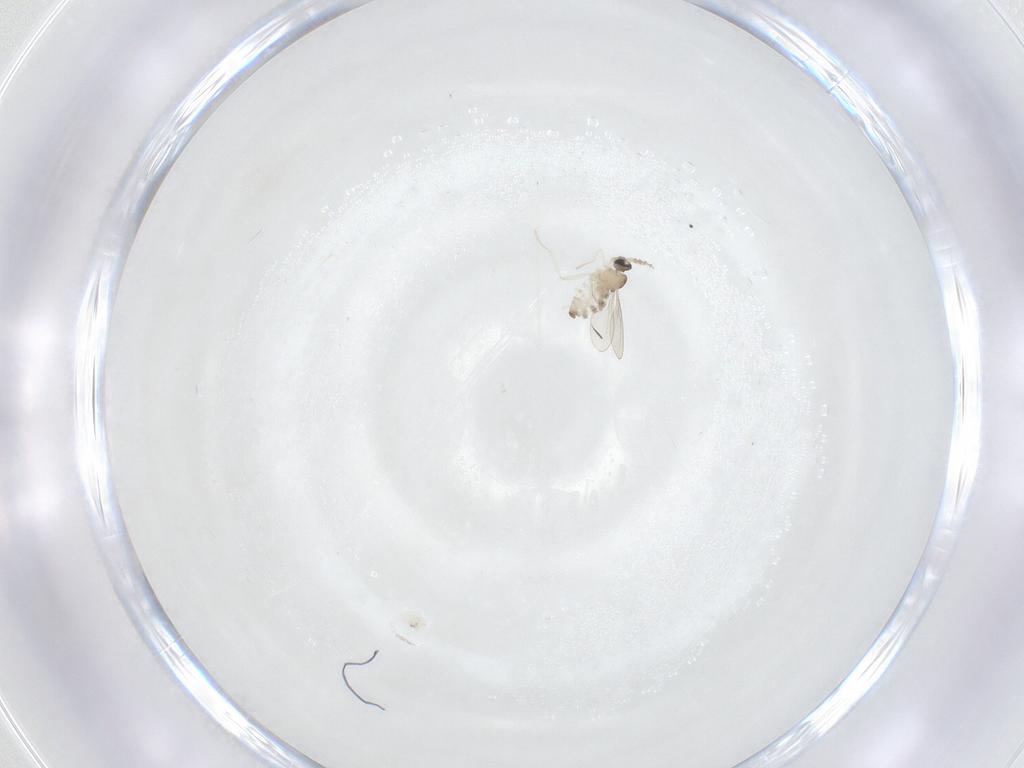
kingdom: Animalia
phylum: Arthropoda
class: Insecta
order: Diptera
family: Cecidomyiidae
